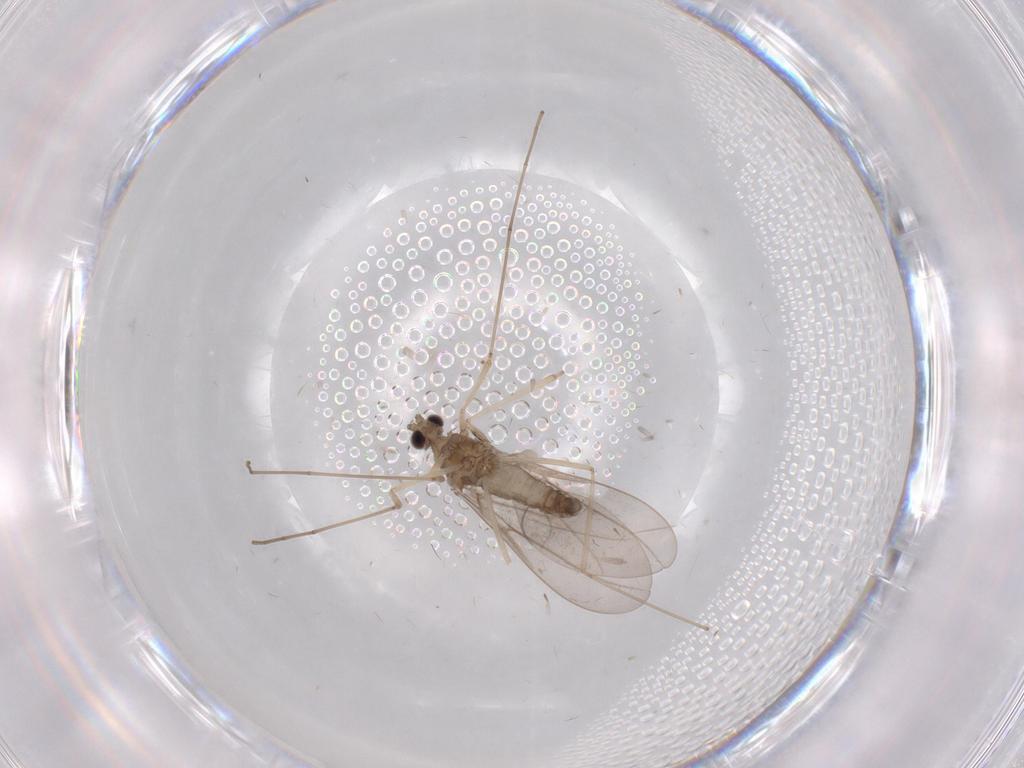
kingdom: Animalia
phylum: Arthropoda
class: Insecta
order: Diptera
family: Cecidomyiidae
